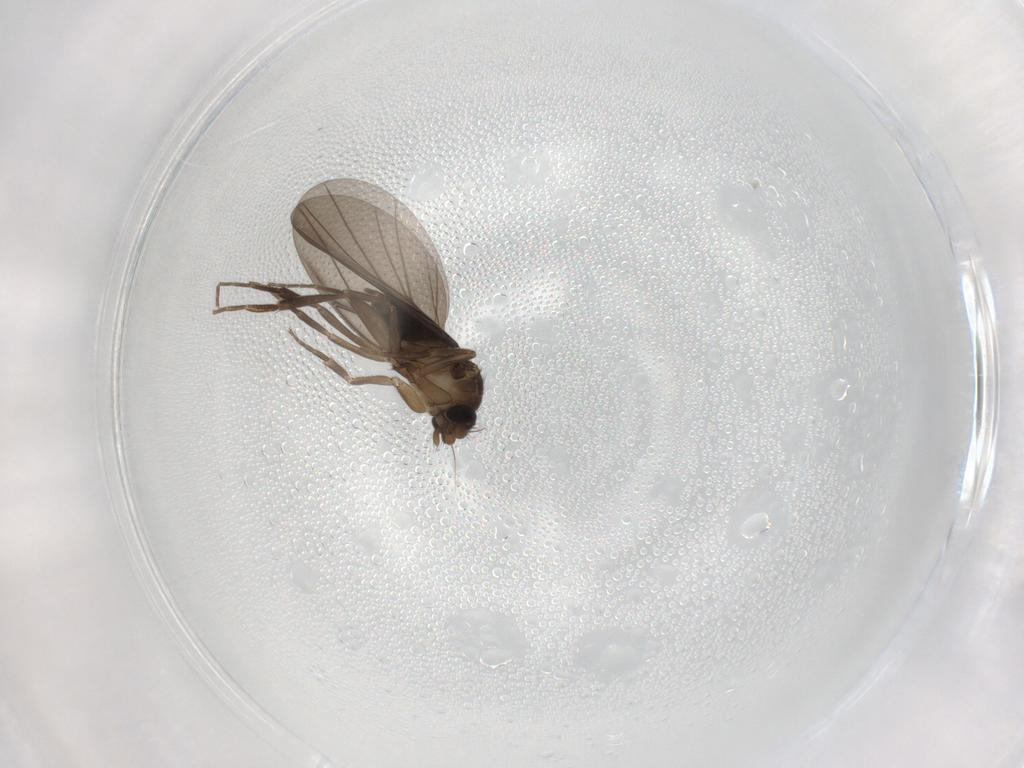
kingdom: Animalia
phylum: Arthropoda
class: Insecta
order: Diptera
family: Phoridae
